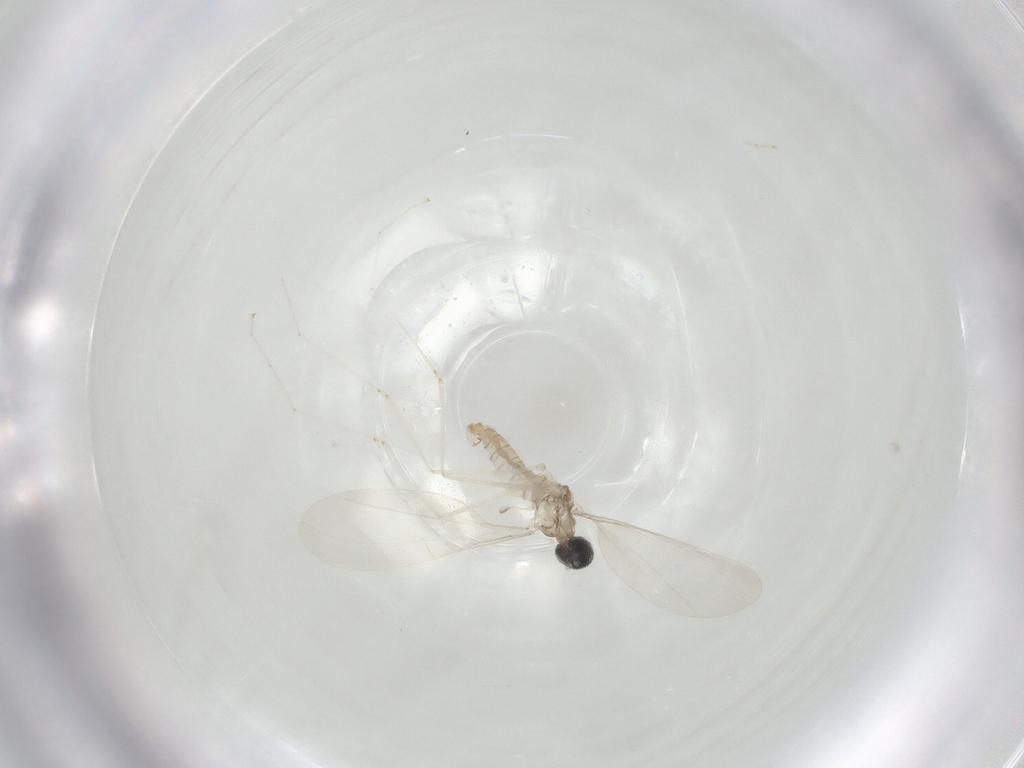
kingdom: Animalia
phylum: Arthropoda
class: Insecta
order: Diptera
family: Cecidomyiidae
